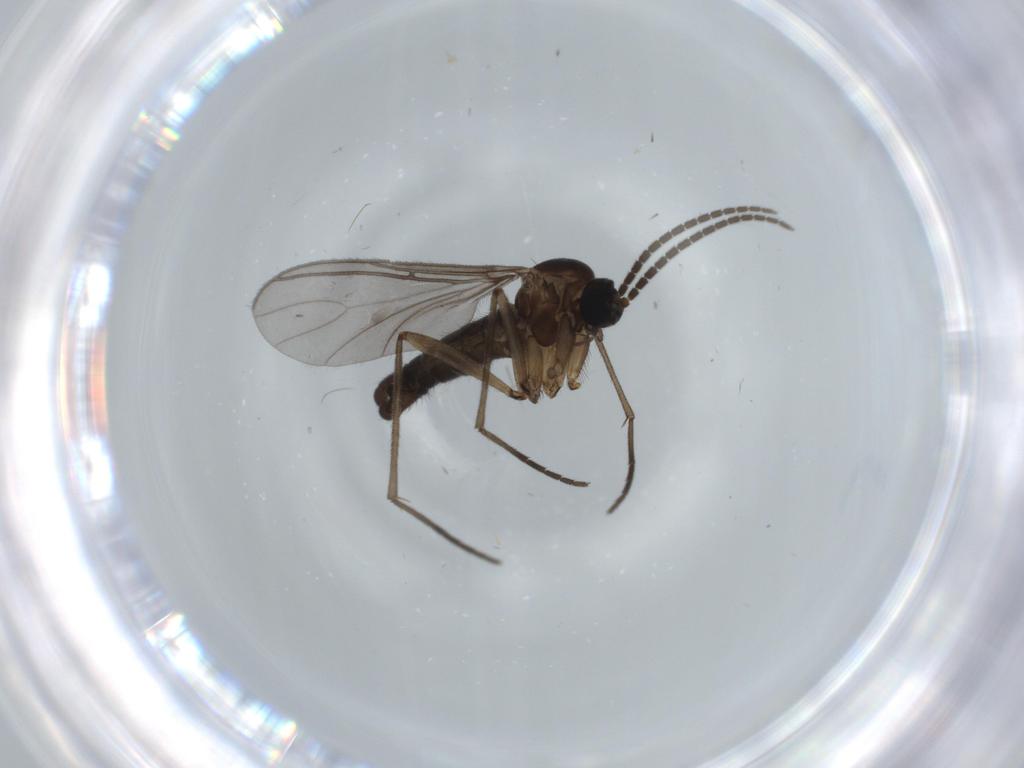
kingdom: Animalia
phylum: Arthropoda
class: Insecta
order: Diptera
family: Sciaridae
